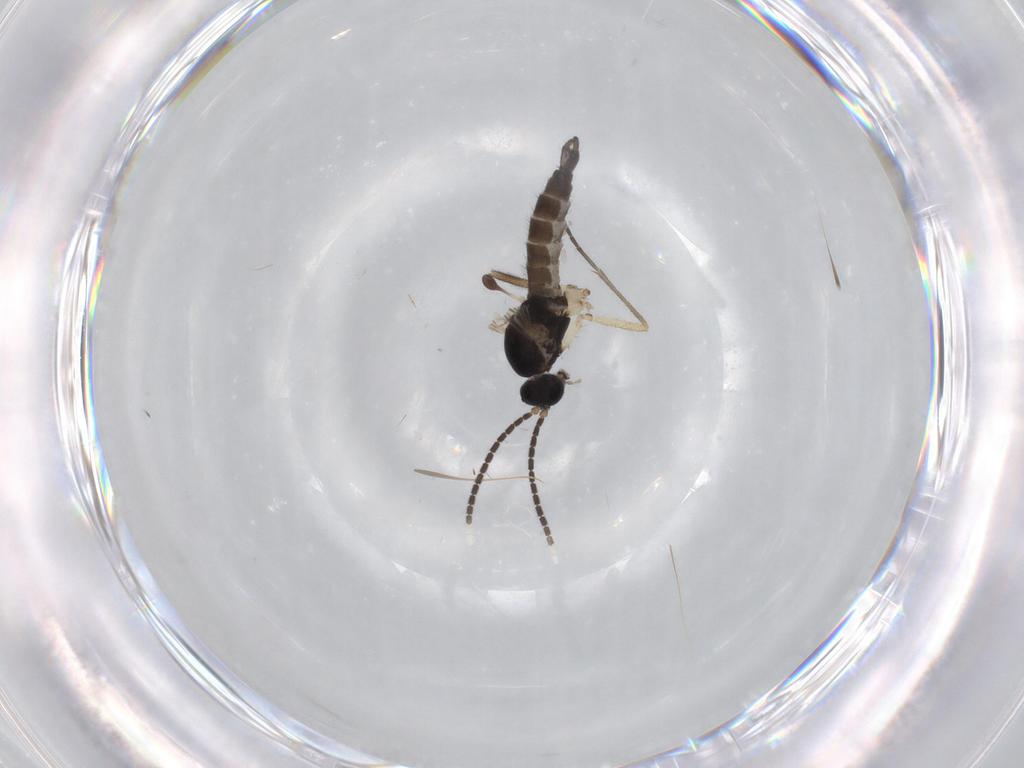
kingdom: Animalia
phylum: Arthropoda
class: Insecta
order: Diptera
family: Sciaridae
